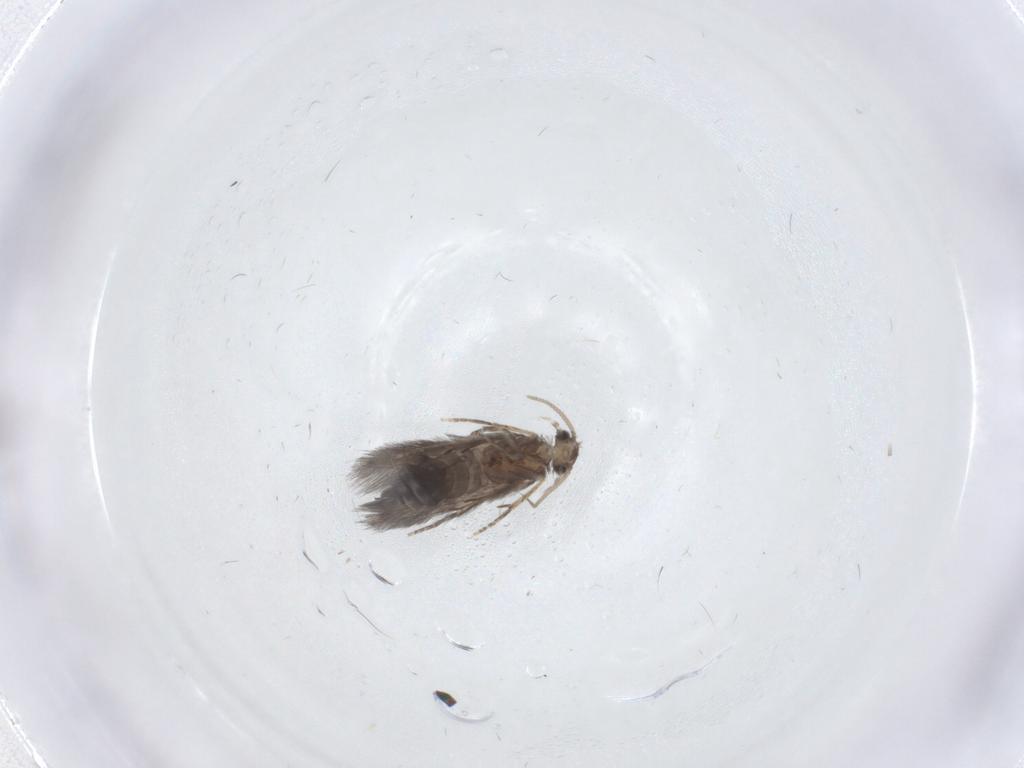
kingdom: Animalia
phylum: Arthropoda
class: Insecta
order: Trichoptera
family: Hydroptilidae
